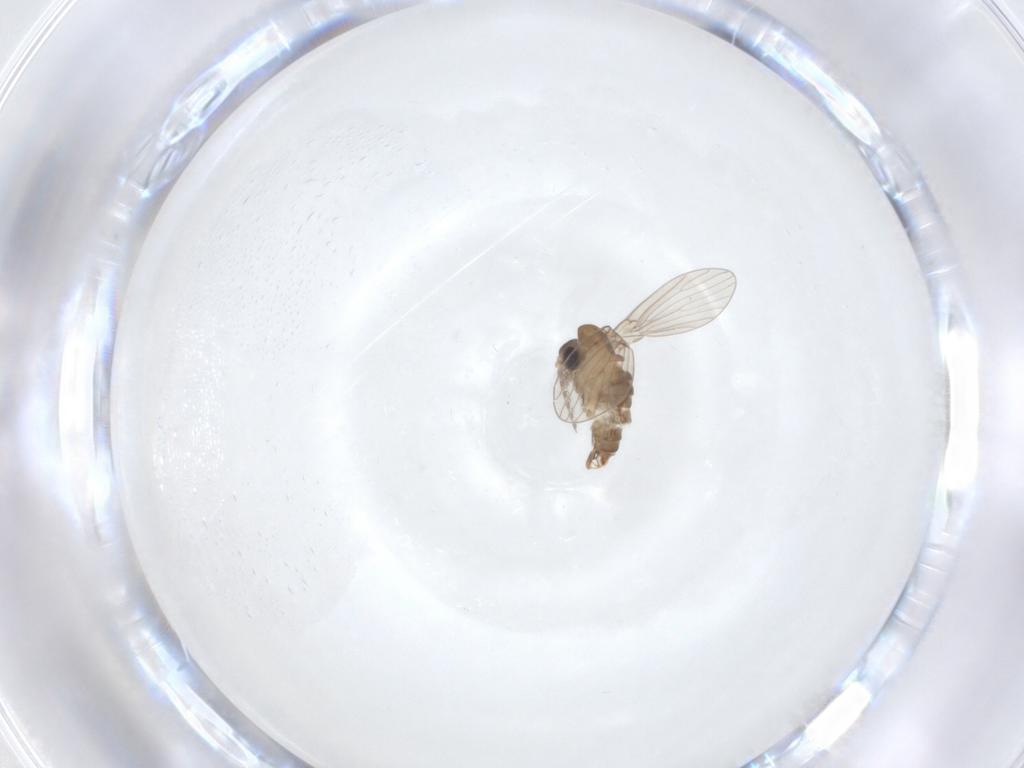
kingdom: Animalia
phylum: Arthropoda
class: Insecta
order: Diptera
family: Psychodidae
